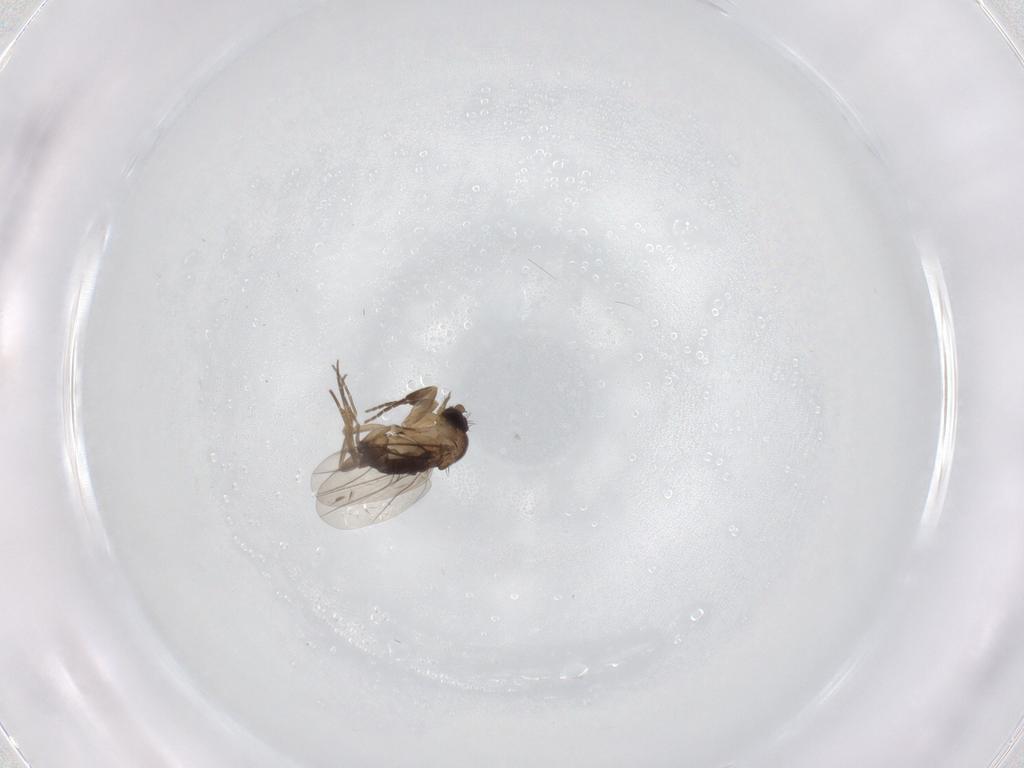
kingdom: Animalia
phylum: Arthropoda
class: Insecta
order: Diptera
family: Phoridae
